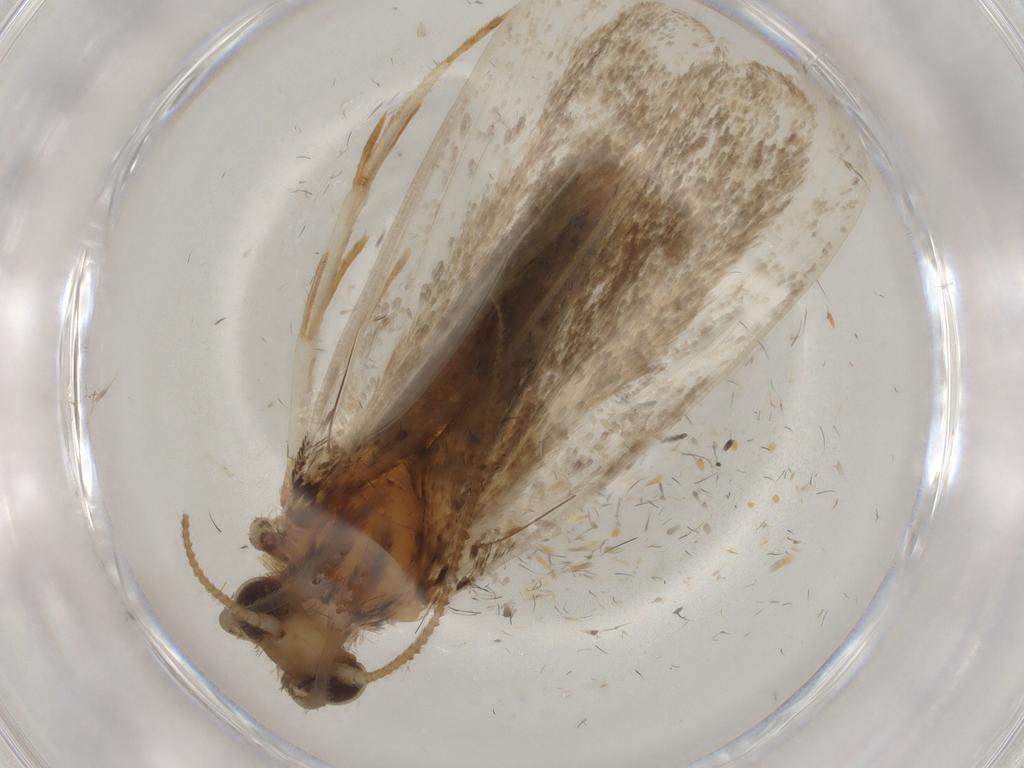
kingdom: Animalia
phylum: Arthropoda
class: Insecta
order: Lepidoptera
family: Tineidae
